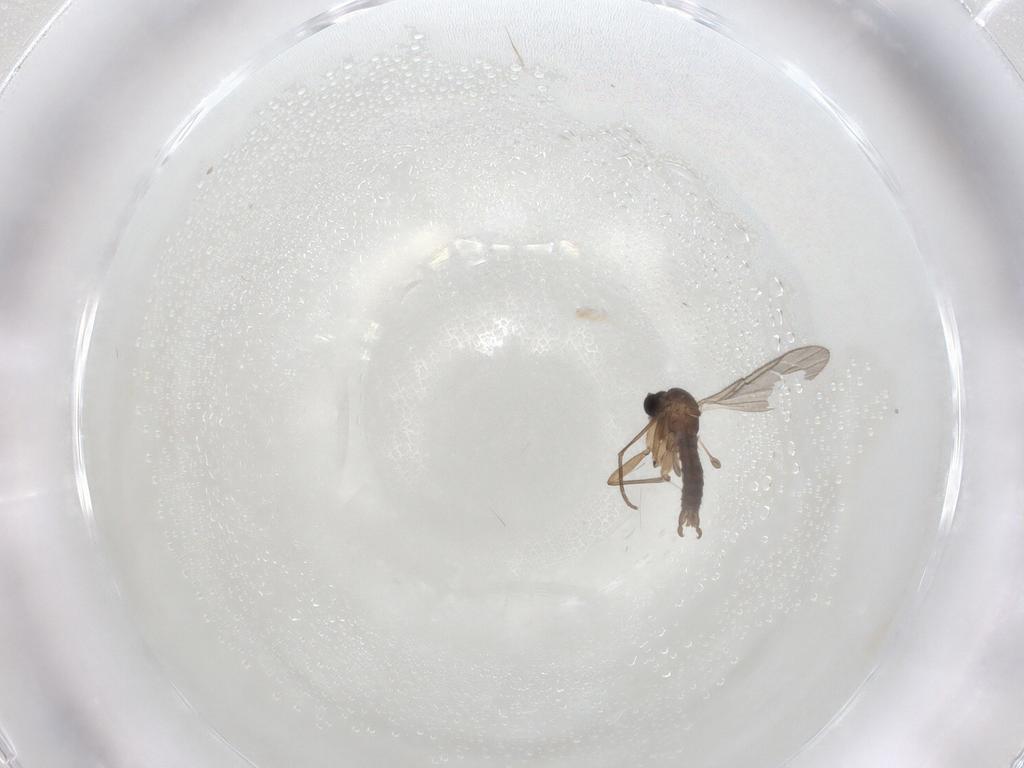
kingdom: Animalia
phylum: Arthropoda
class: Insecta
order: Diptera
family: Sciaridae
